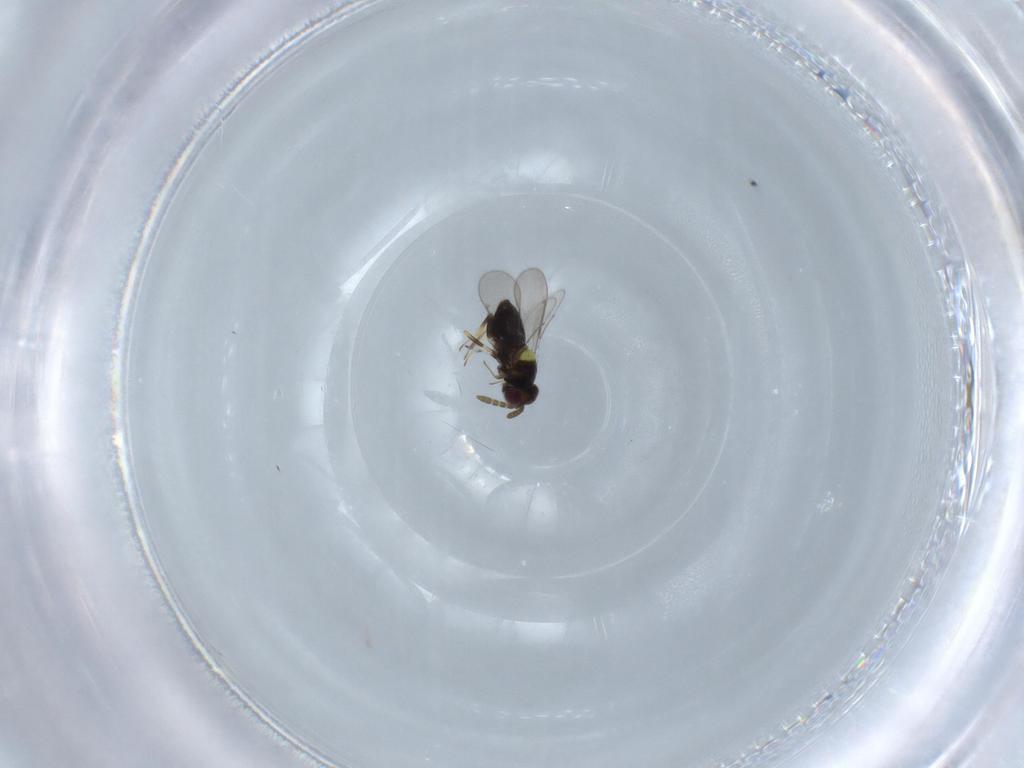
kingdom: Animalia
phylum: Arthropoda
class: Insecta
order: Hymenoptera
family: Aphelinidae
